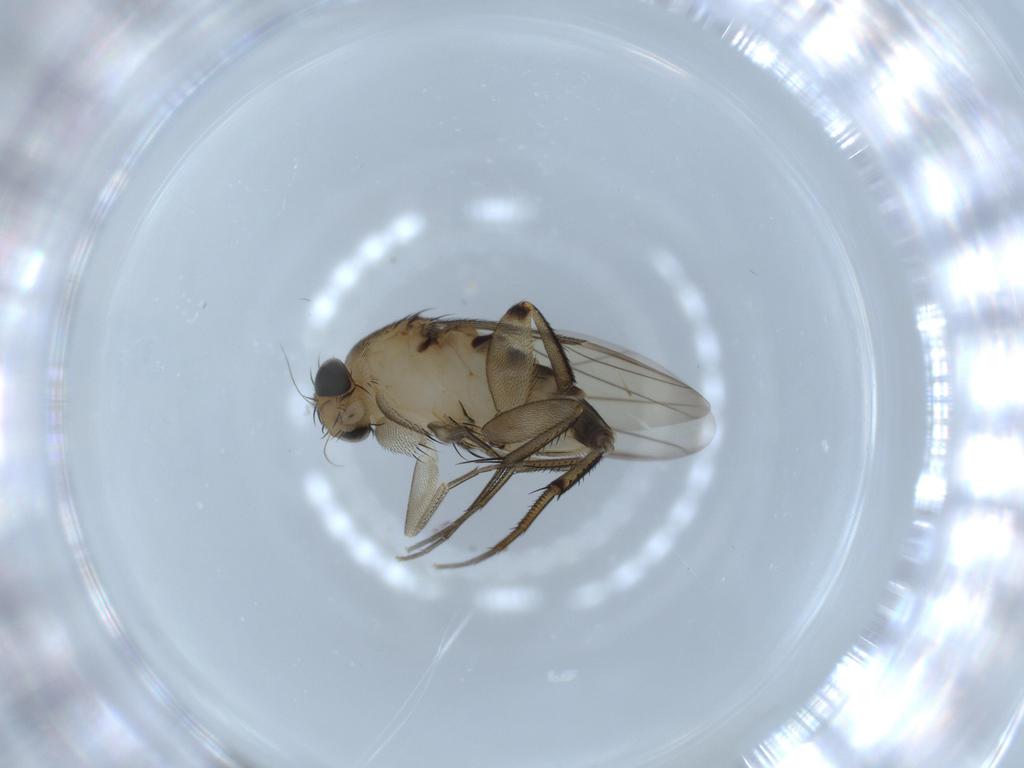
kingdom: Animalia
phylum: Arthropoda
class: Insecta
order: Diptera
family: Phoridae
